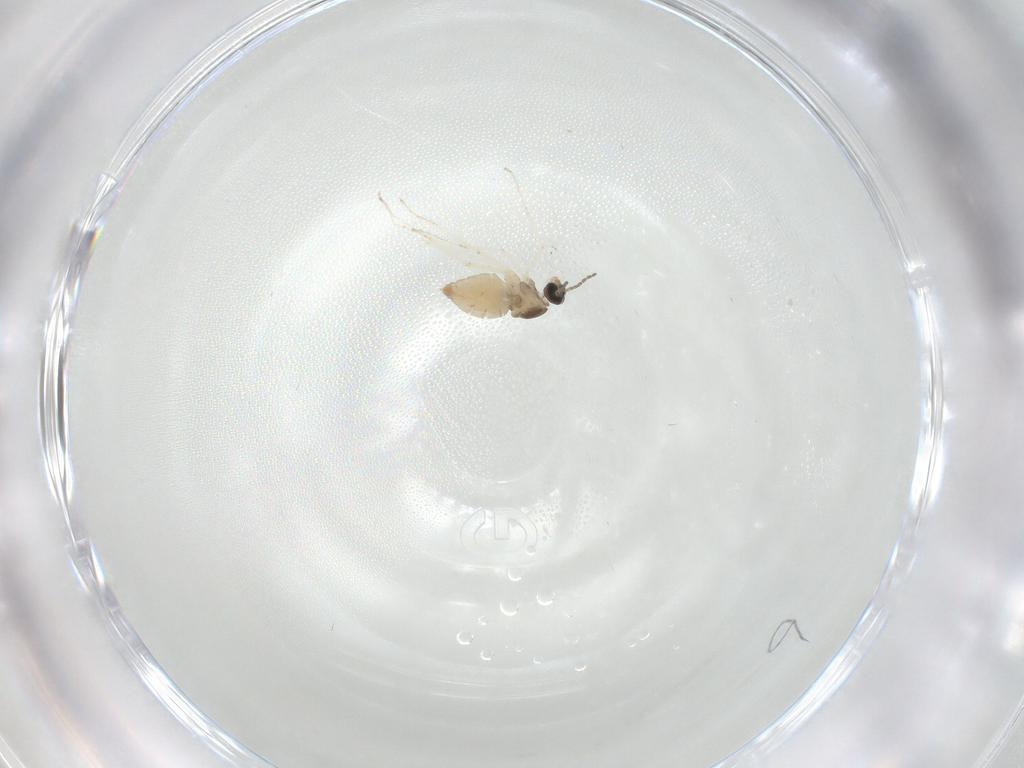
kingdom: Animalia
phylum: Arthropoda
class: Insecta
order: Diptera
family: Cecidomyiidae
